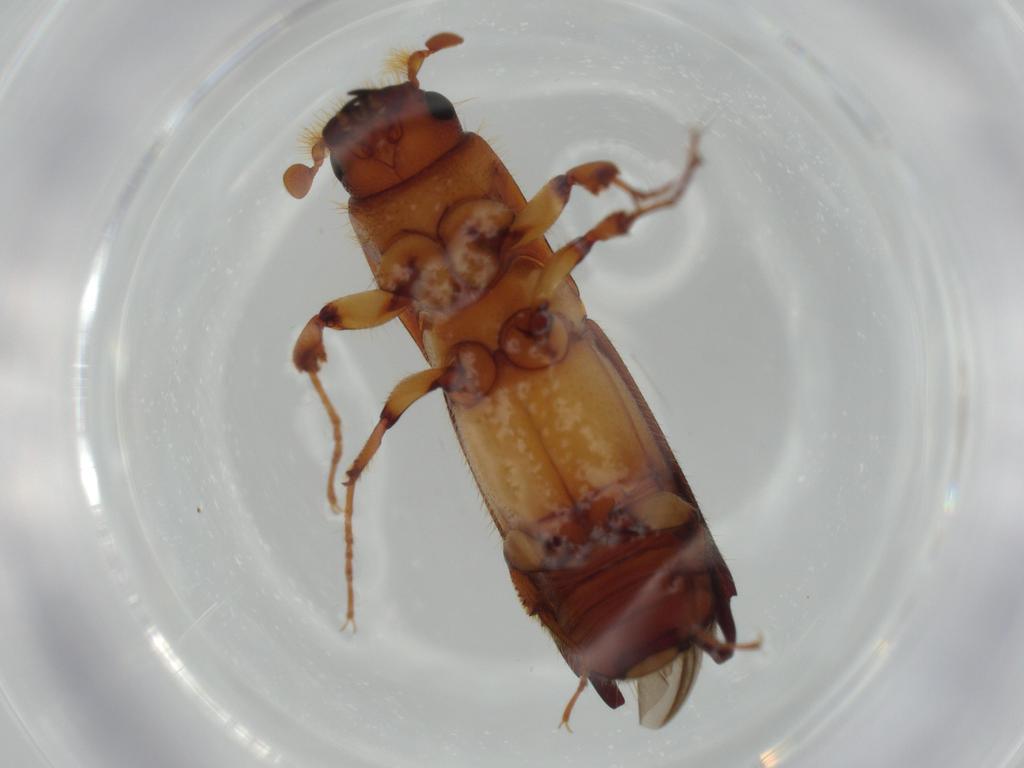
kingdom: Animalia
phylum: Arthropoda
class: Insecta
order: Coleoptera
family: Curculionidae
